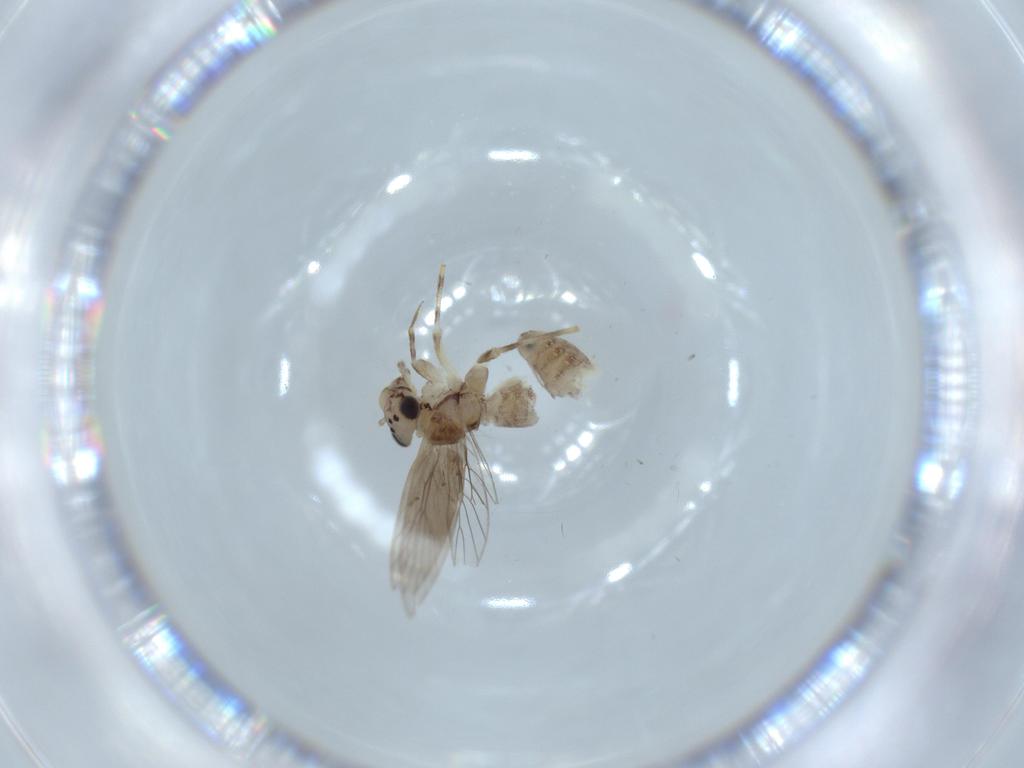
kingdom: Animalia
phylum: Arthropoda
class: Insecta
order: Psocodea
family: Lepidopsocidae
